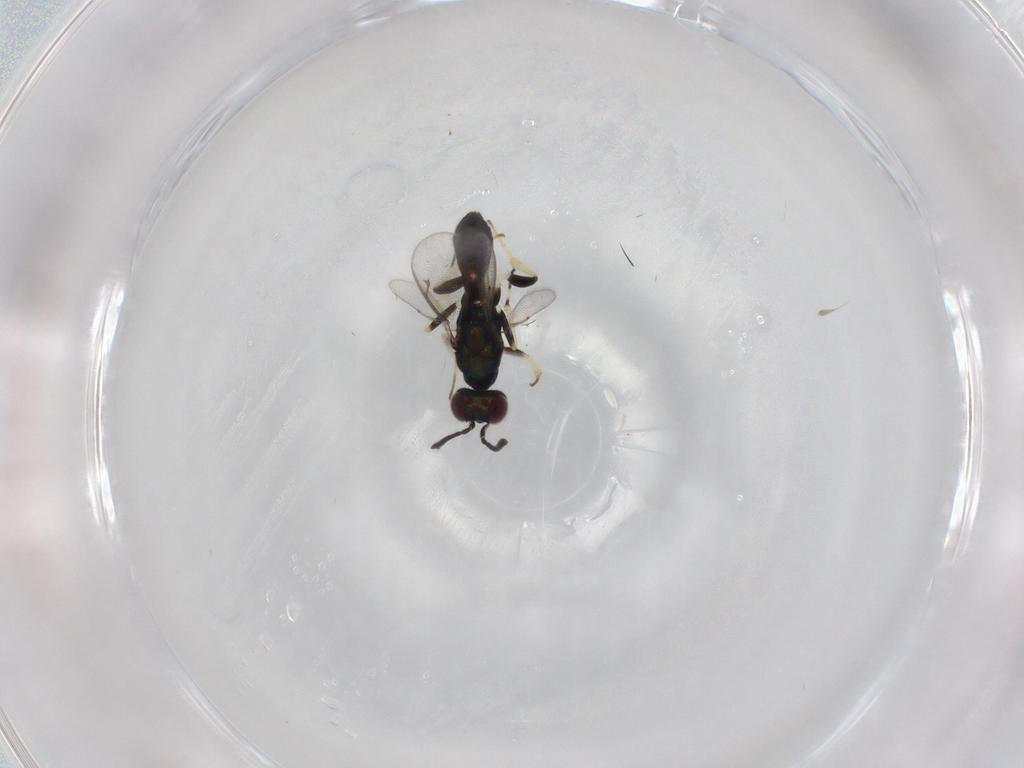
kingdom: Animalia
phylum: Arthropoda
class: Insecta
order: Hymenoptera
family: Eupelmidae
